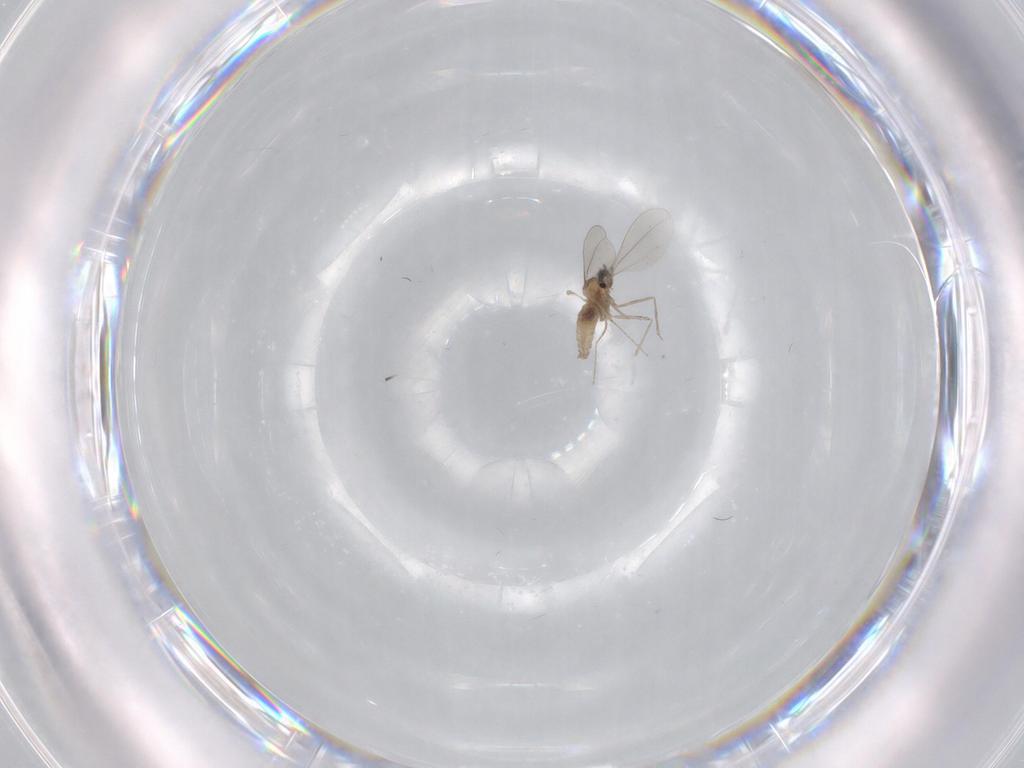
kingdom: Animalia
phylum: Arthropoda
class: Insecta
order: Diptera
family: Cecidomyiidae
